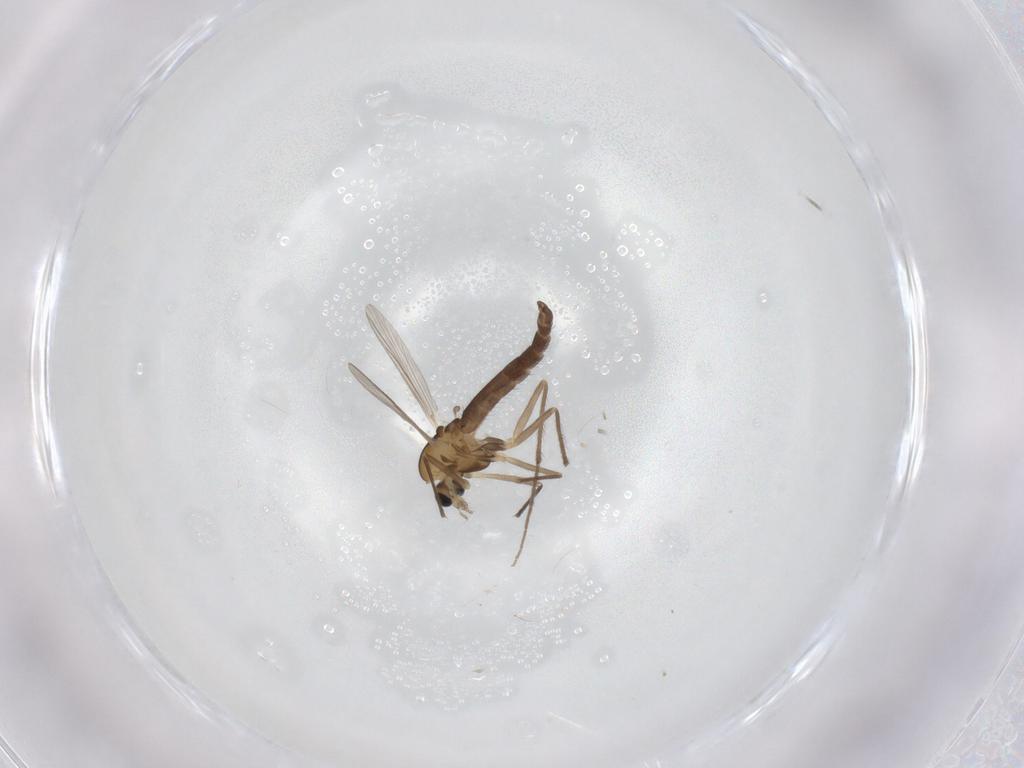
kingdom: Animalia
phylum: Arthropoda
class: Insecta
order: Diptera
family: Chironomidae
